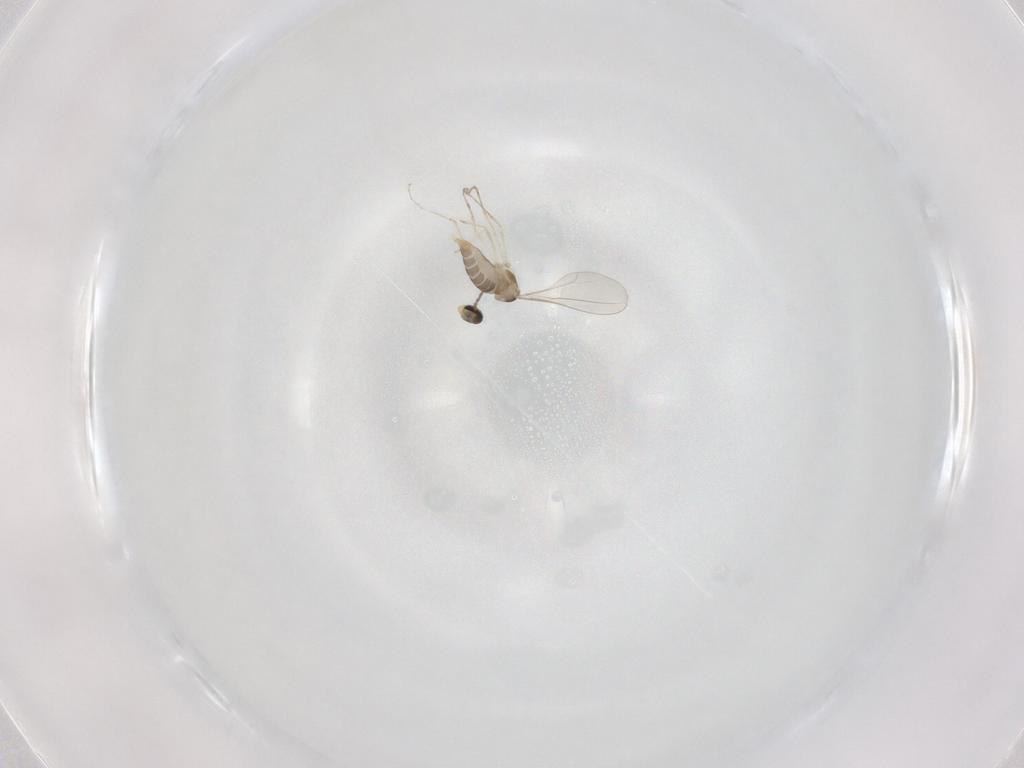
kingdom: Animalia
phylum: Arthropoda
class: Insecta
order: Diptera
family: Cecidomyiidae
